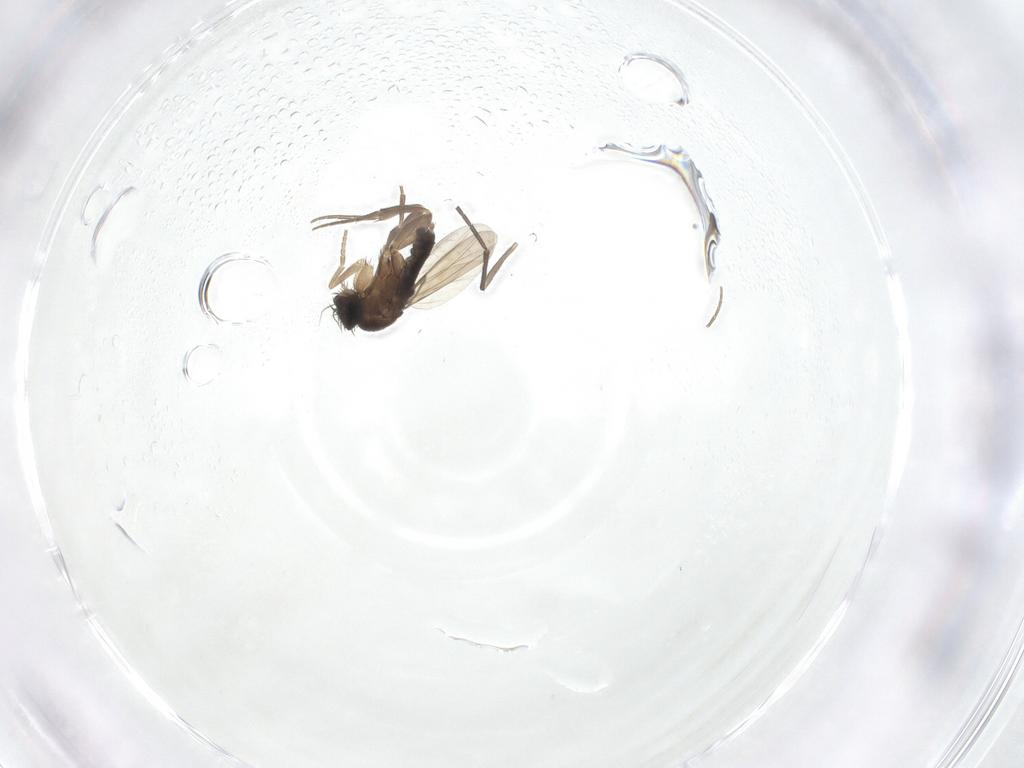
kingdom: Animalia
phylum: Arthropoda
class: Insecta
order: Diptera
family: Phoridae
